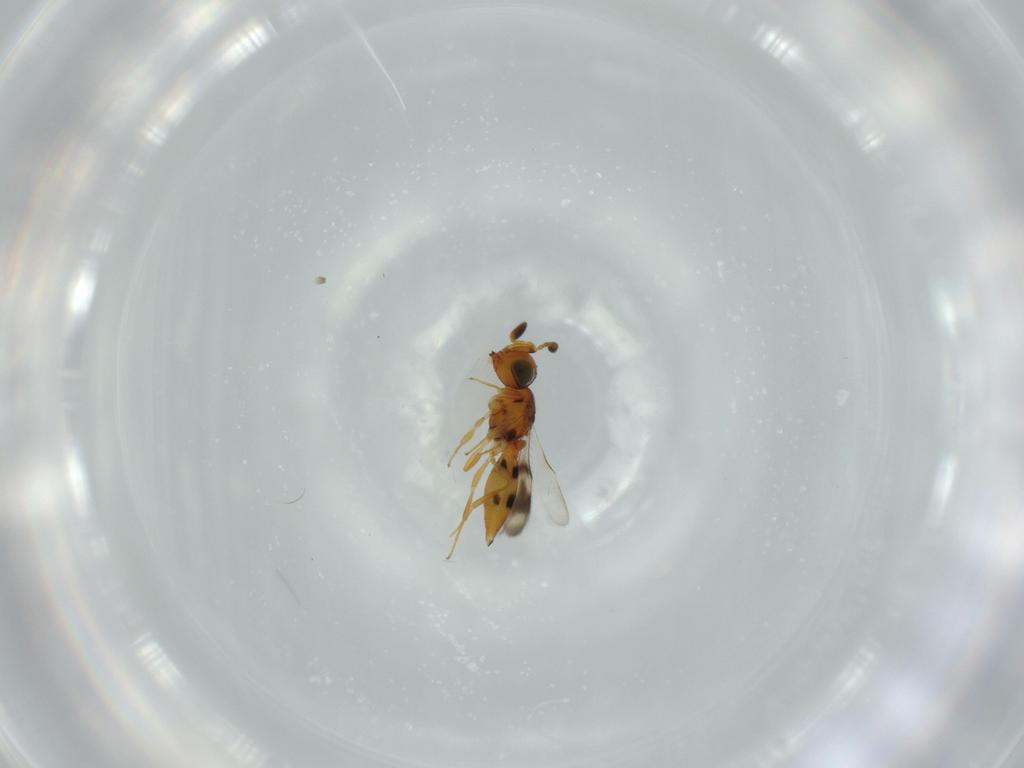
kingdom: Animalia
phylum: Arthropoda
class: Insecta
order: Hymenoptera
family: Scelionidae
